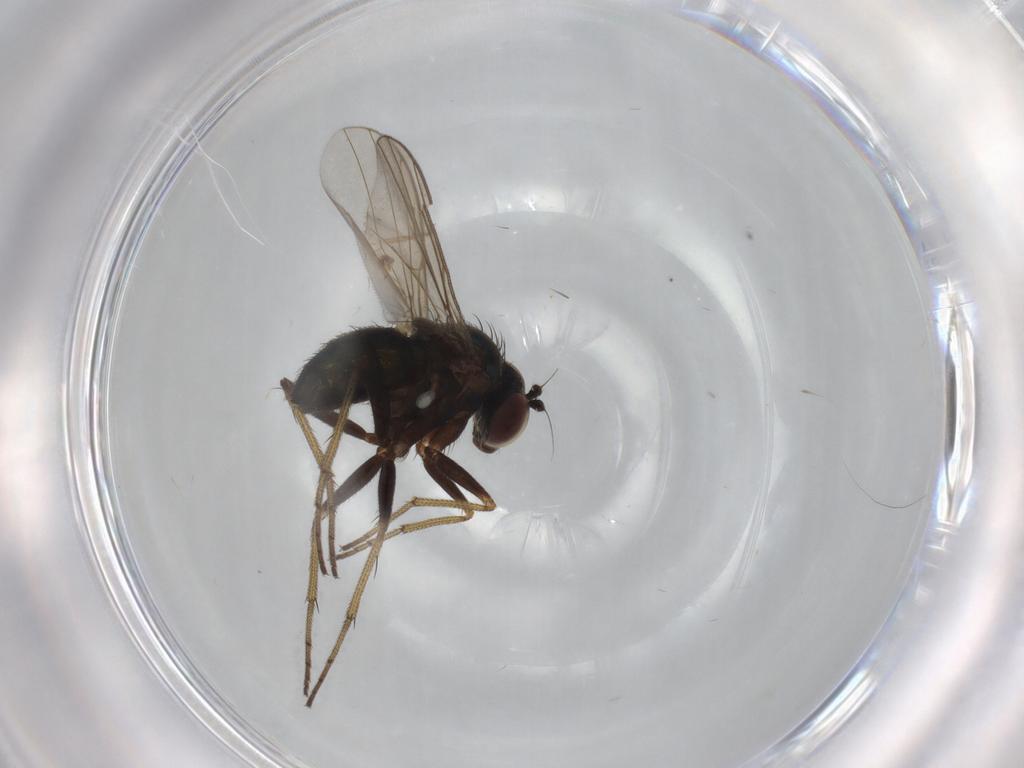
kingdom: Animalia
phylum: Arthropoda
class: Insecta
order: Diptera
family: Dolichopodidae
